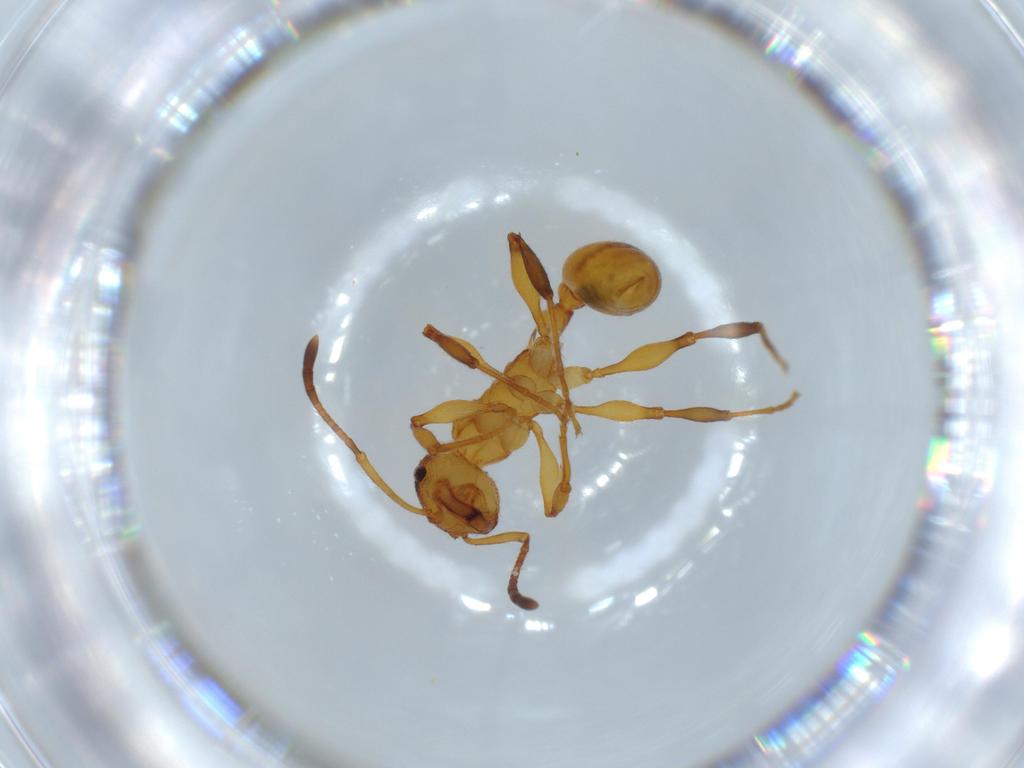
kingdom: Animalia
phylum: Arthropoda
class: Insecta
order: Hymenoptera
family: Formicidae
